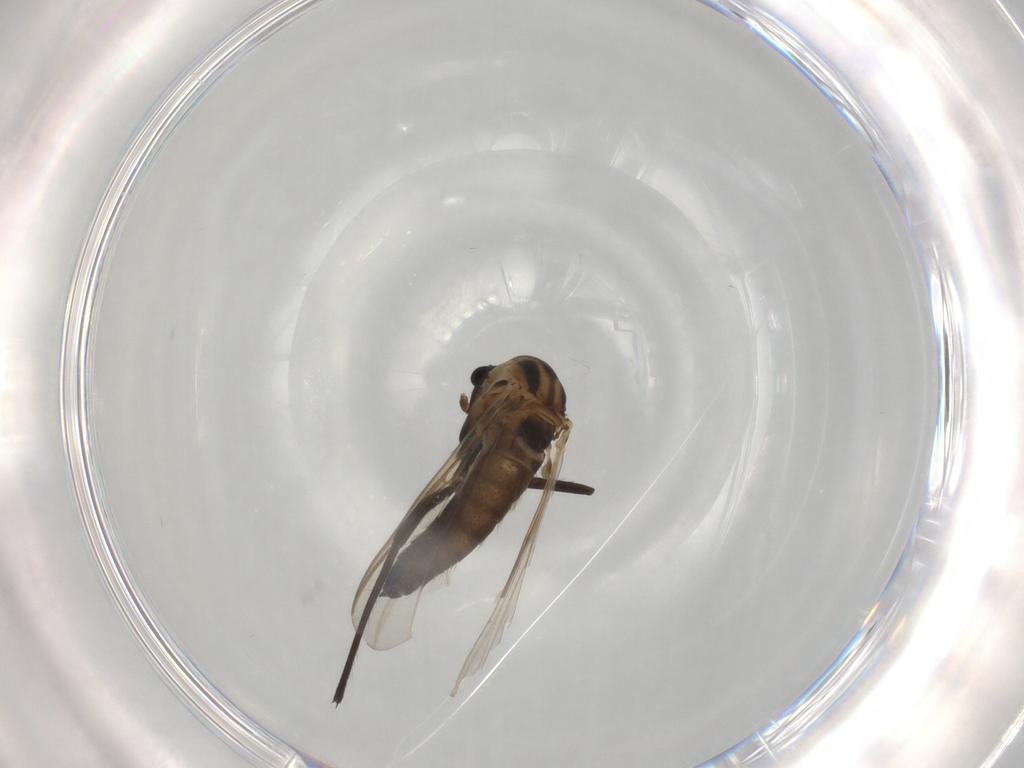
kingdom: Animalia
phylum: Arthropoda
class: Insecta
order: Diptera
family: Chironomidae
